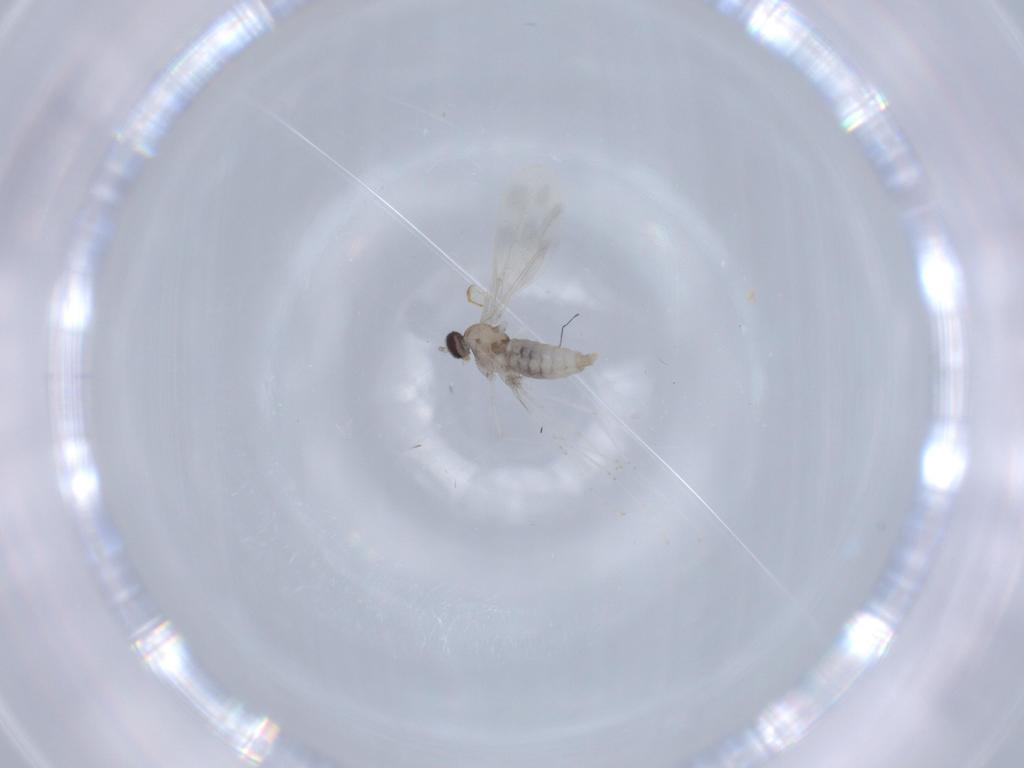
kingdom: Animalia
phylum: Arthropoda
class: Insecta
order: Diptera
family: Cecidomyiidae
